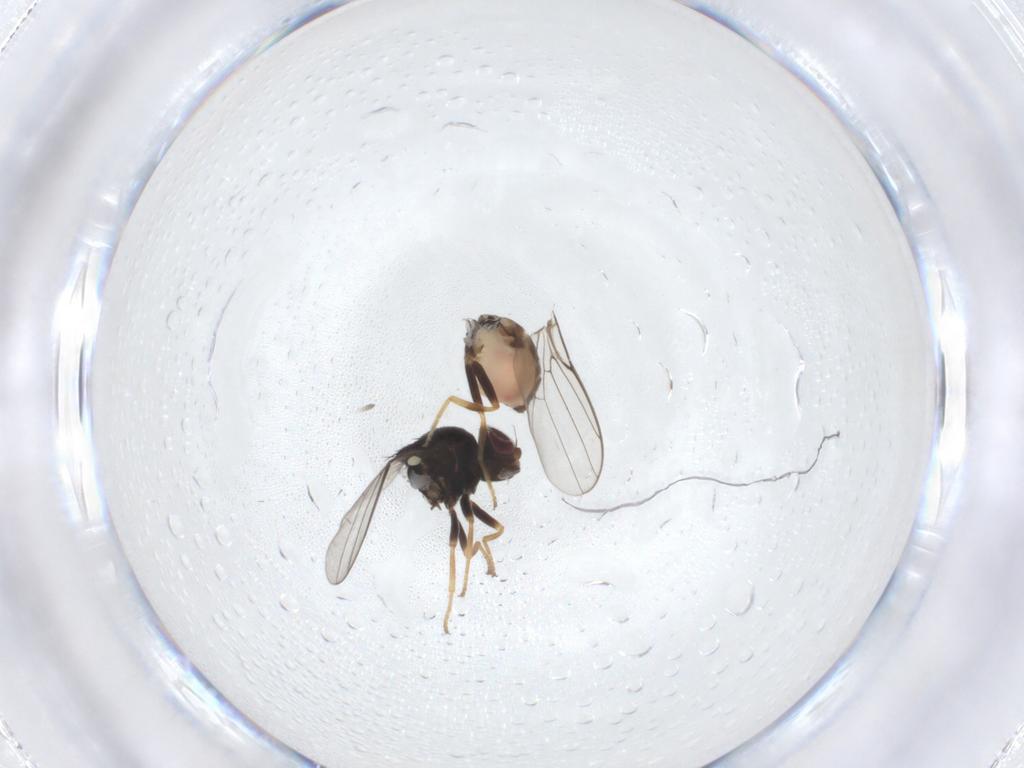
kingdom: Animalia
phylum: Arthropoda
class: Insecta
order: Diptera
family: Chloropidae
